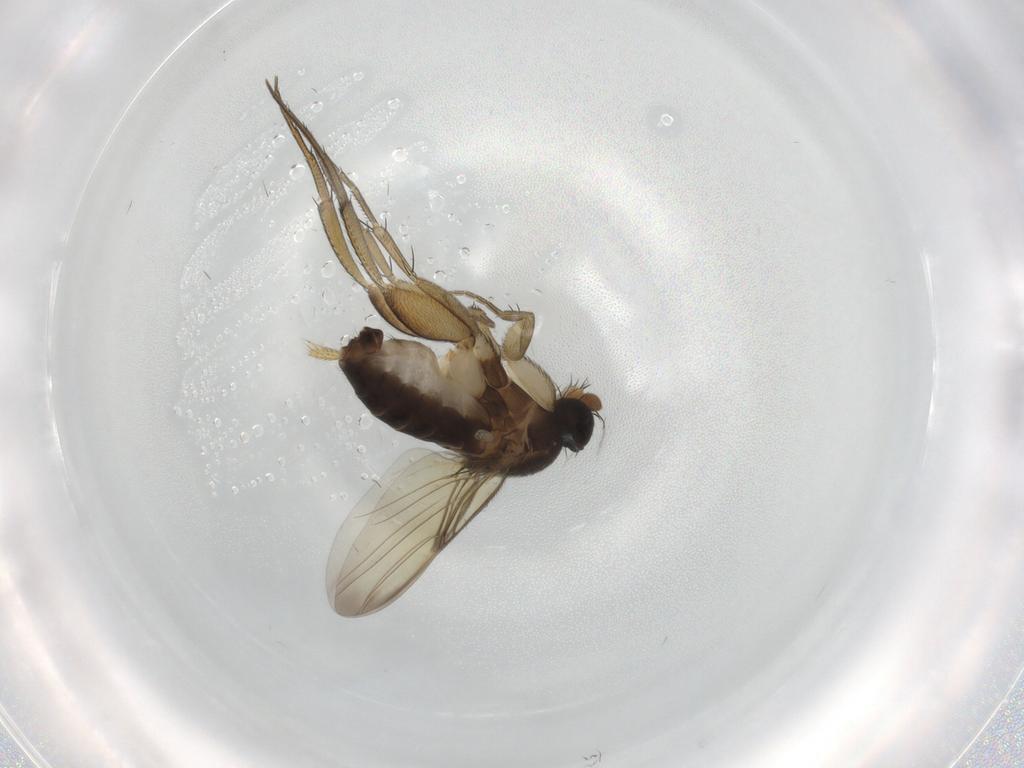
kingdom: Animalia
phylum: Arthropoda
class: Insecta
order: Diptera
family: Phoridae
